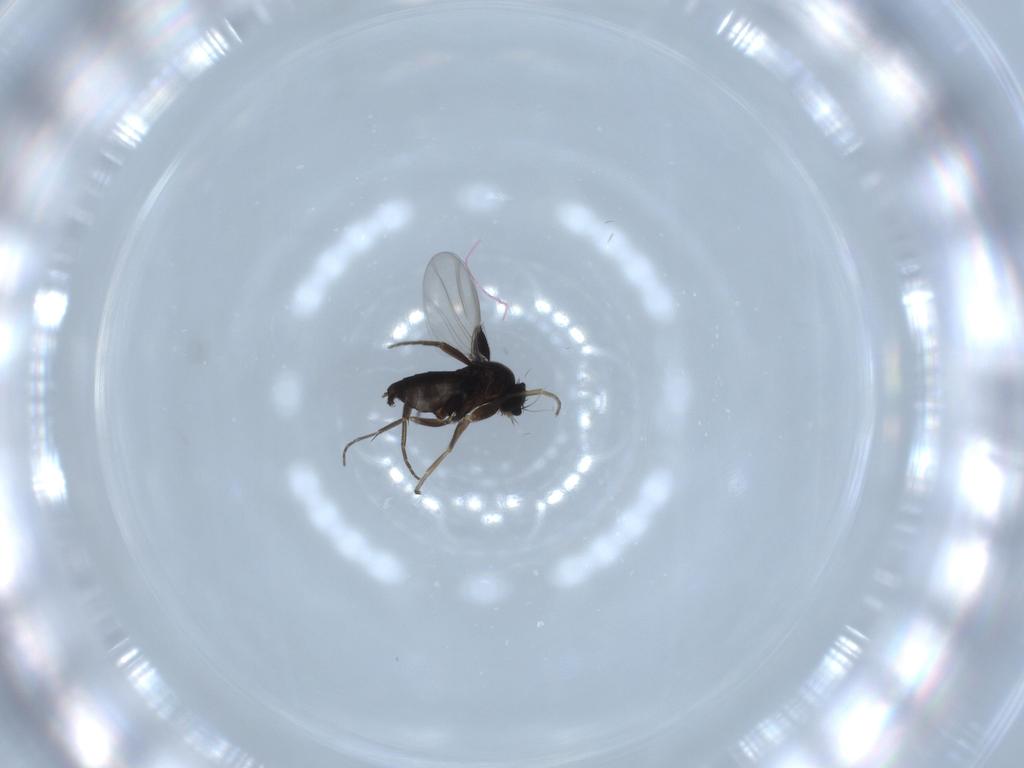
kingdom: Animalia
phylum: Arthropoda
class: Insecta
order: Diptera
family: Phoridae
